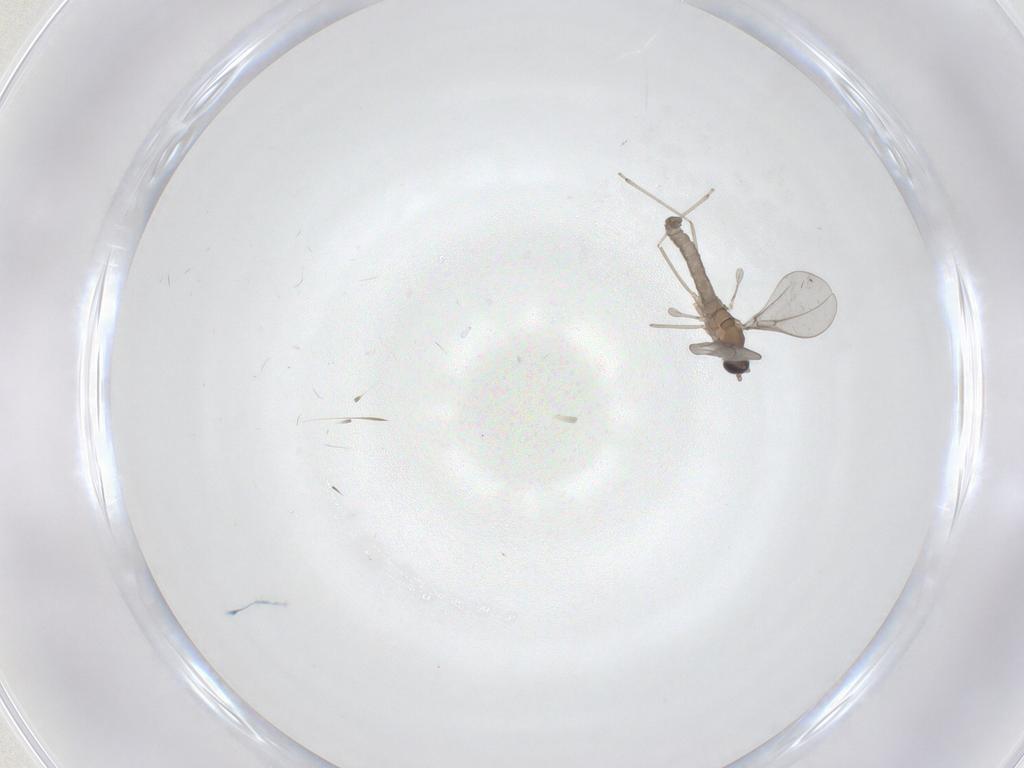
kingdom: Animalia
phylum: Arthropoda
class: Insecta
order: Diptera
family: Cecidomyiidae
